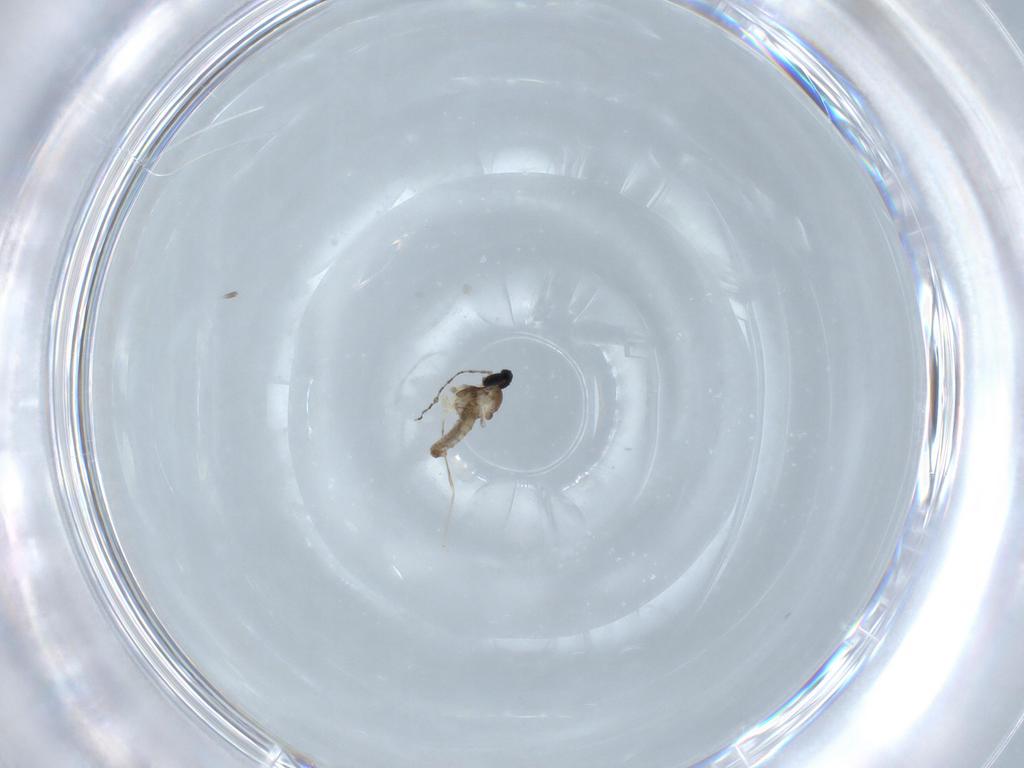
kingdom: Animalia
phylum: Arthropoda
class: Insecta
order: Diptera
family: Cecidomyiidae
